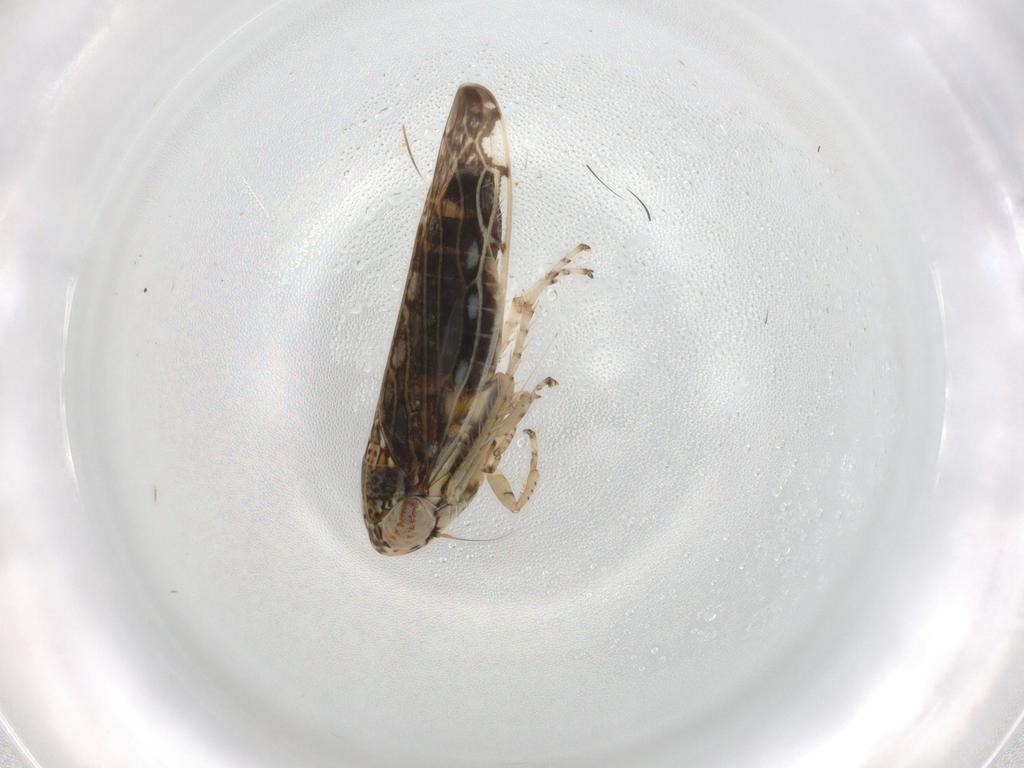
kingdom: Animalia
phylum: Arthropoda
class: Insecta
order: Hemiptera
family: Cicadellidae
